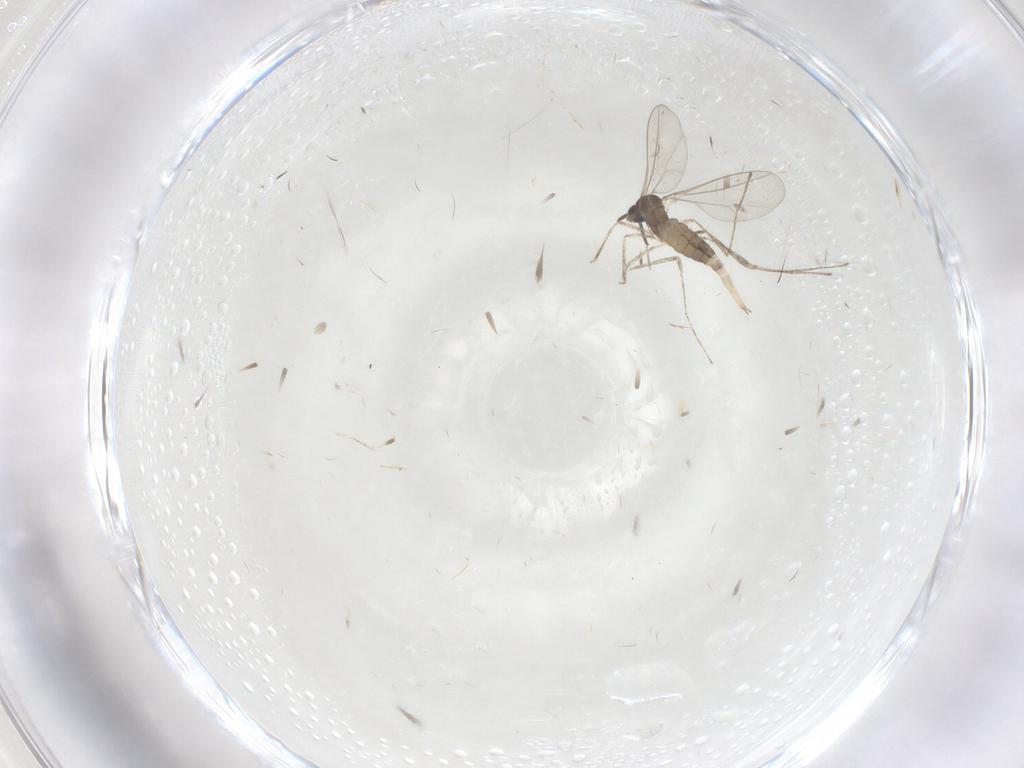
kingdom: Animalia
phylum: Arthropoda
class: Insecta
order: Diptera
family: Cecidomyiidae
